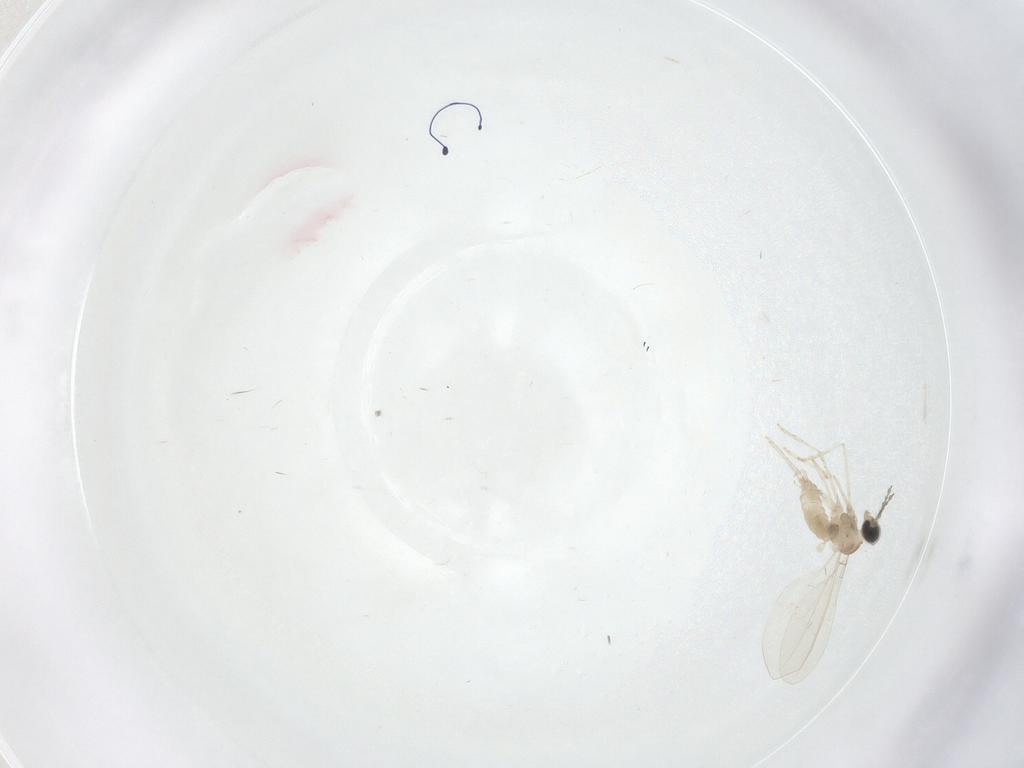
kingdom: Animalia
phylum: Arthropoda
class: Insecta
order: Diptera
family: Cecidomyiidae
